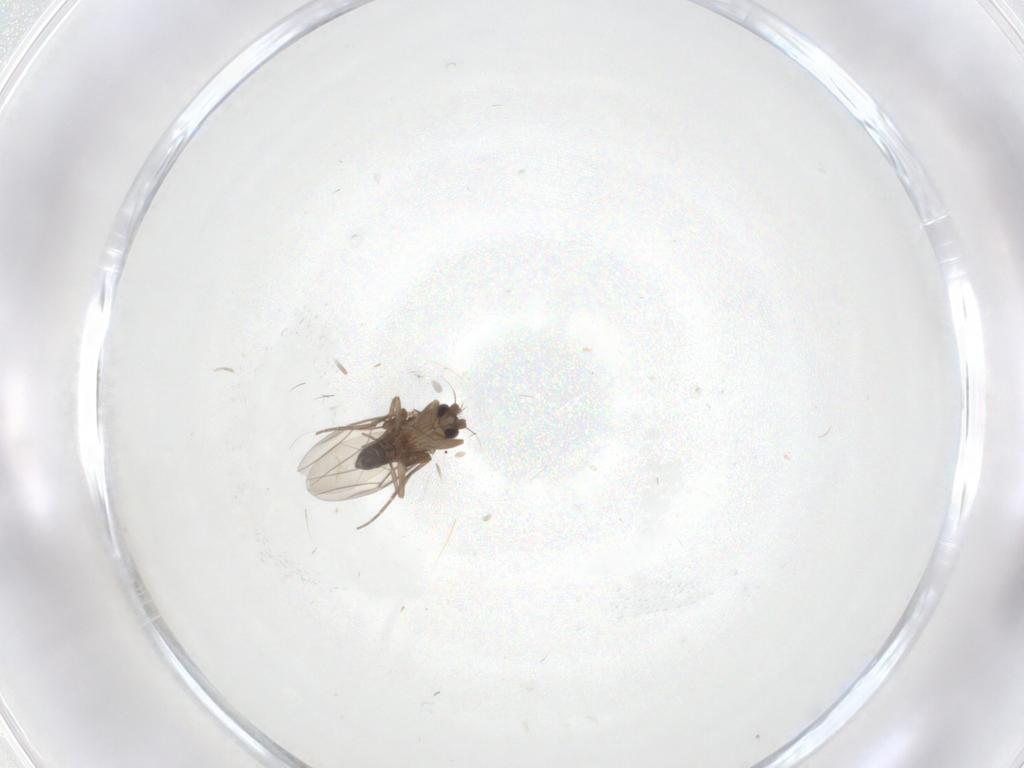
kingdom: Animalia
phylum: Arthropoda
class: Insecta
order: Diptera
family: Phoridae
